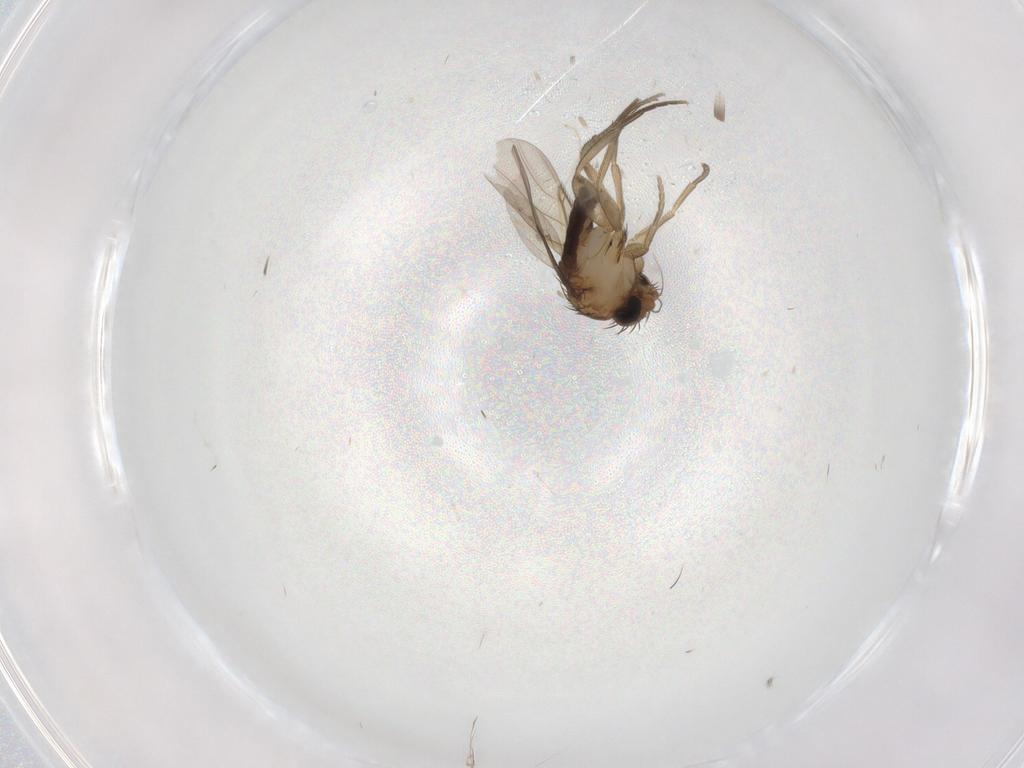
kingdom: Animalia
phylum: Arthropoda
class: Insecta
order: Diptera
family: Phoridae
